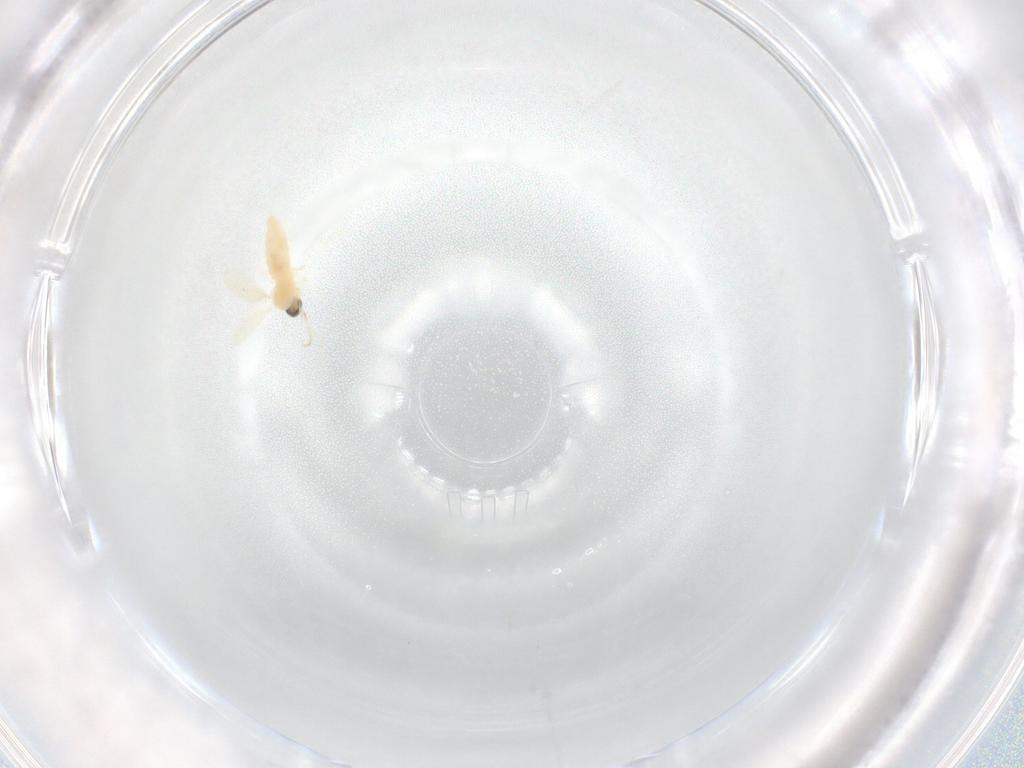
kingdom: Animalia
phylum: Arthropoda
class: Insecta
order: Diptera
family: Cecidomyiidae
